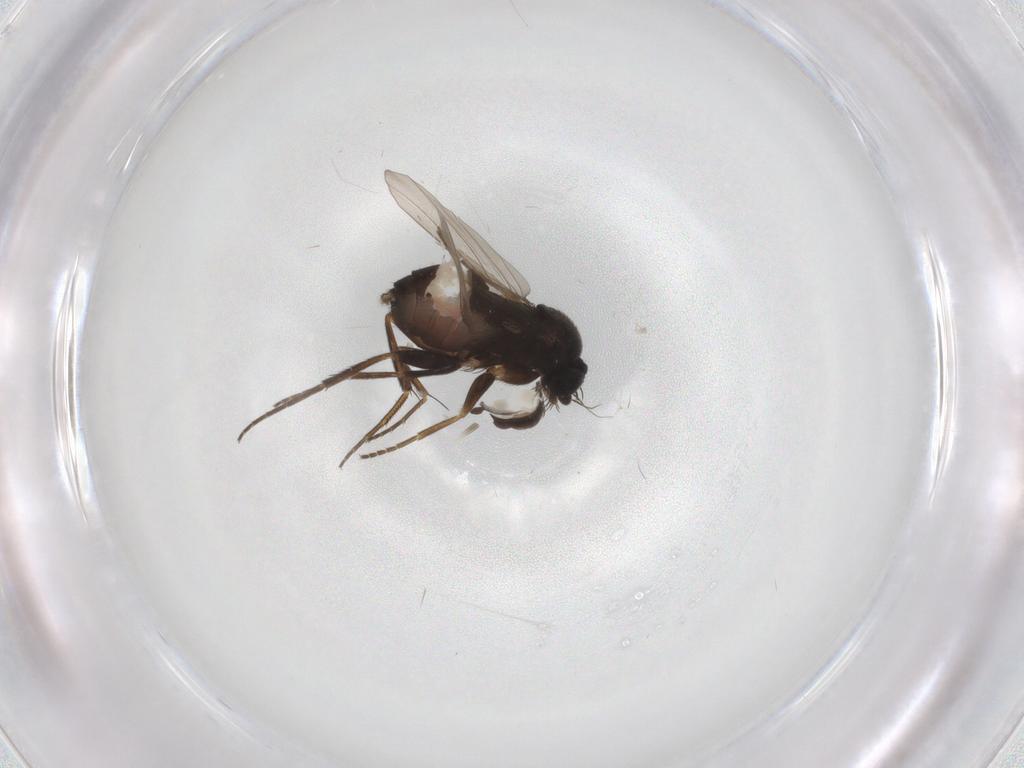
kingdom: Animalia
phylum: Arthropoda
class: Insecta
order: Diptera
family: Phoridae
